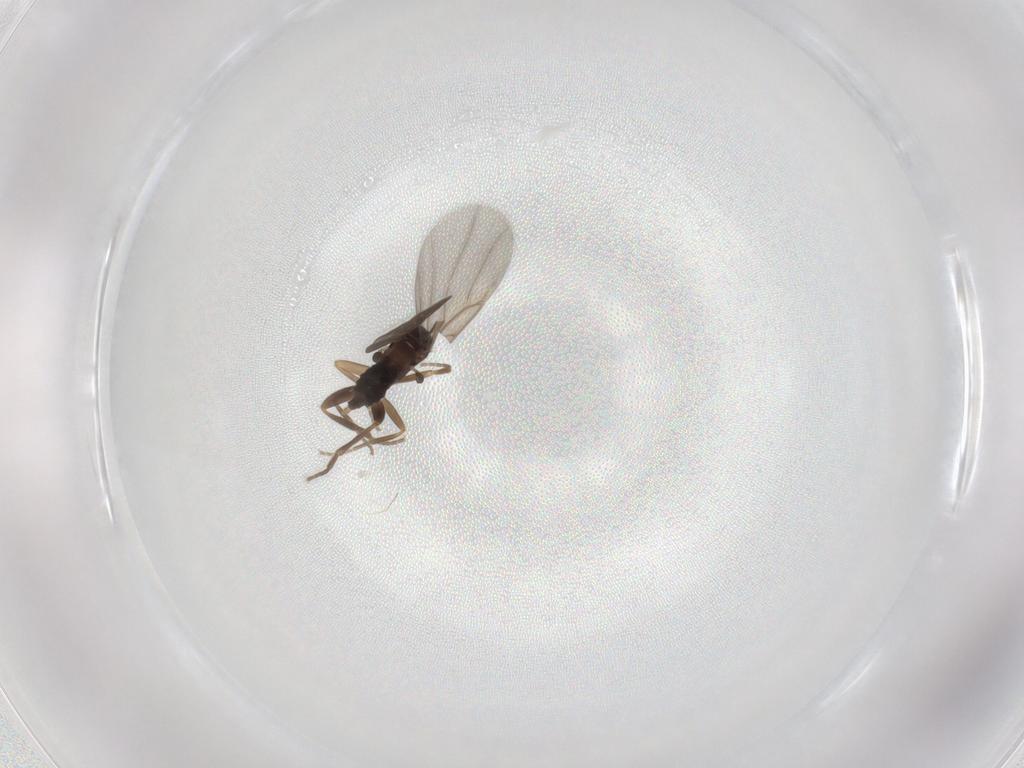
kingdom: Animalia
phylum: Arthropoda
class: Insecta
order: Diptera
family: Phoridae
